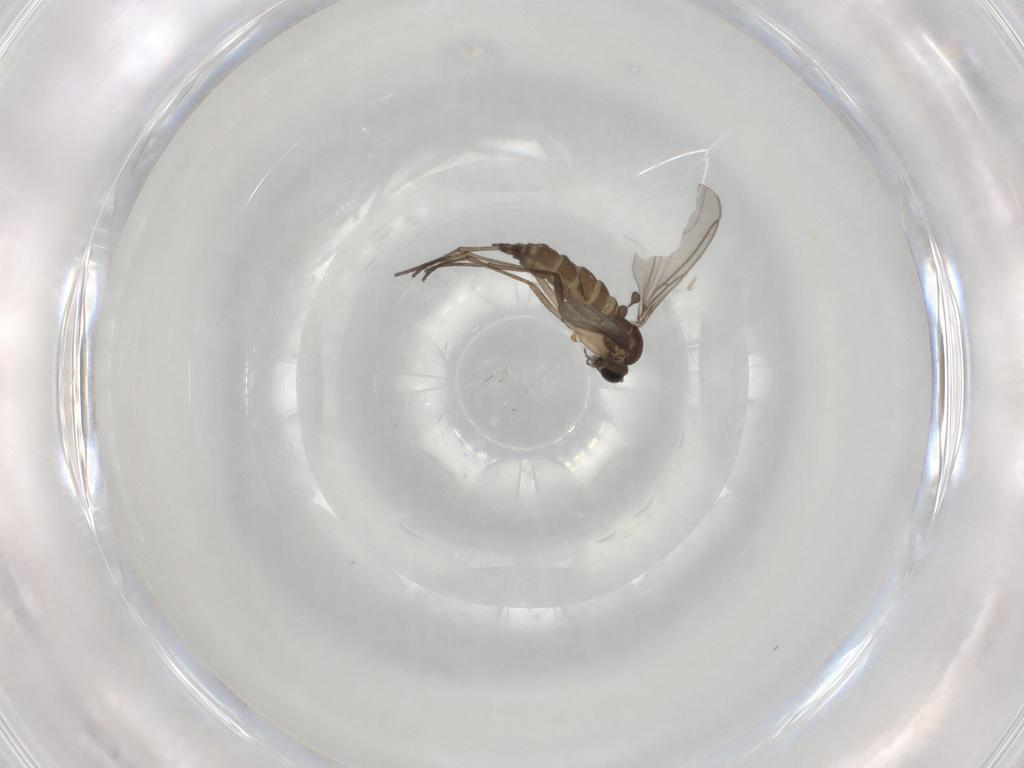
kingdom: Animalia
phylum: Arthropoda
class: Insecta
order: Diptera
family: Sciaridae
